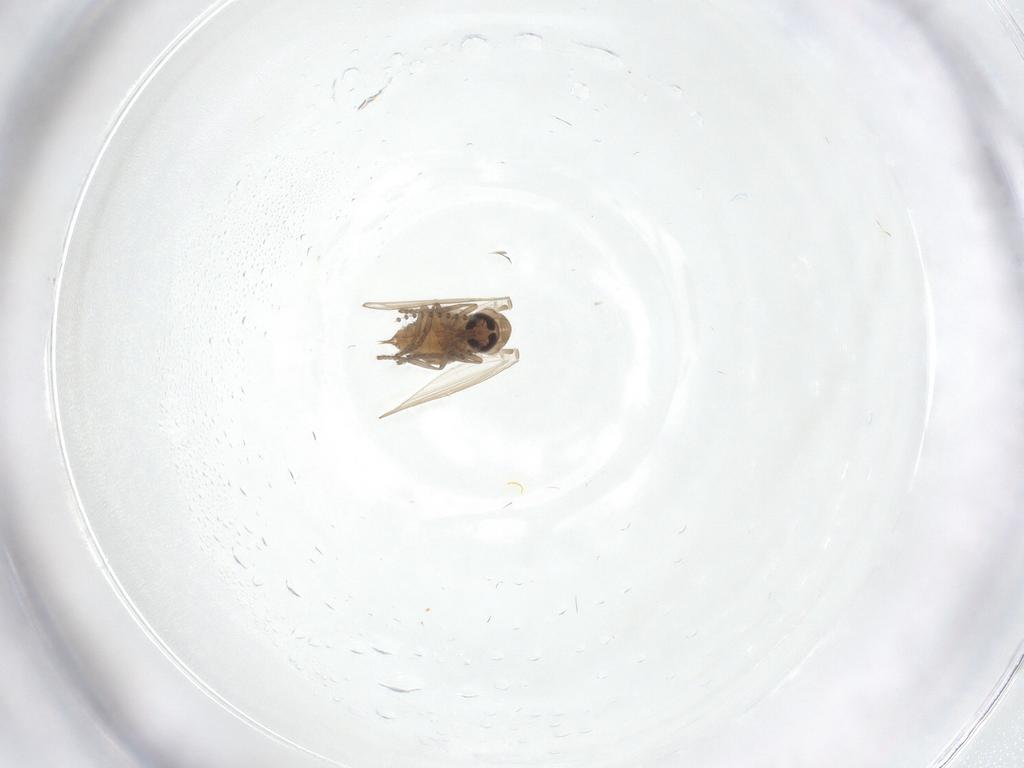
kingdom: Animalia
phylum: Arthropoda
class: Insecta
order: Diptera
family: Psychodidae
